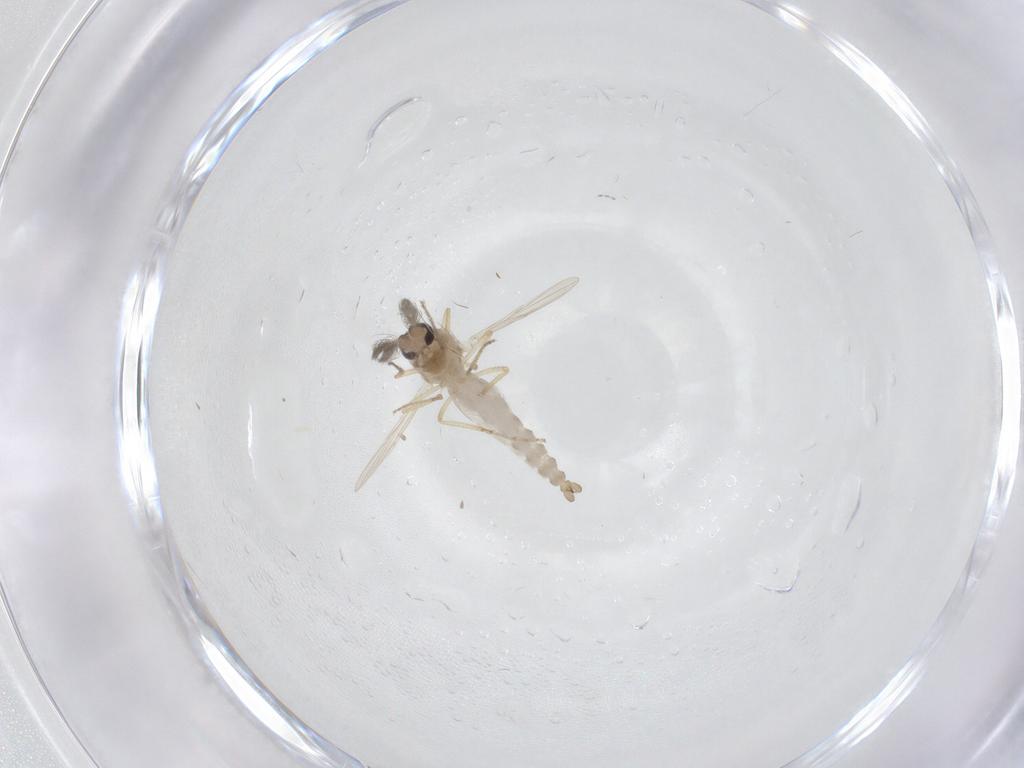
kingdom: Animalia
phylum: Arthropoda
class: Insecta
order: Diptera
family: Ceratopogonidae
